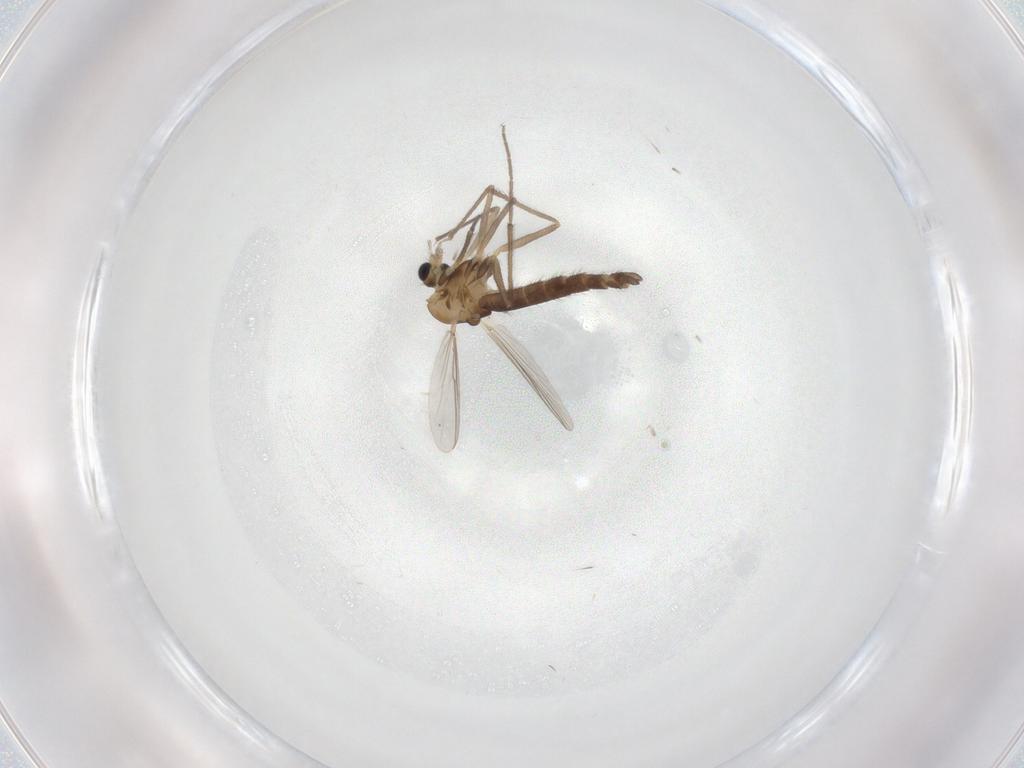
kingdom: Animalia
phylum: Arthropoda
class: Insecta
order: Diptera
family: Chironomidae
